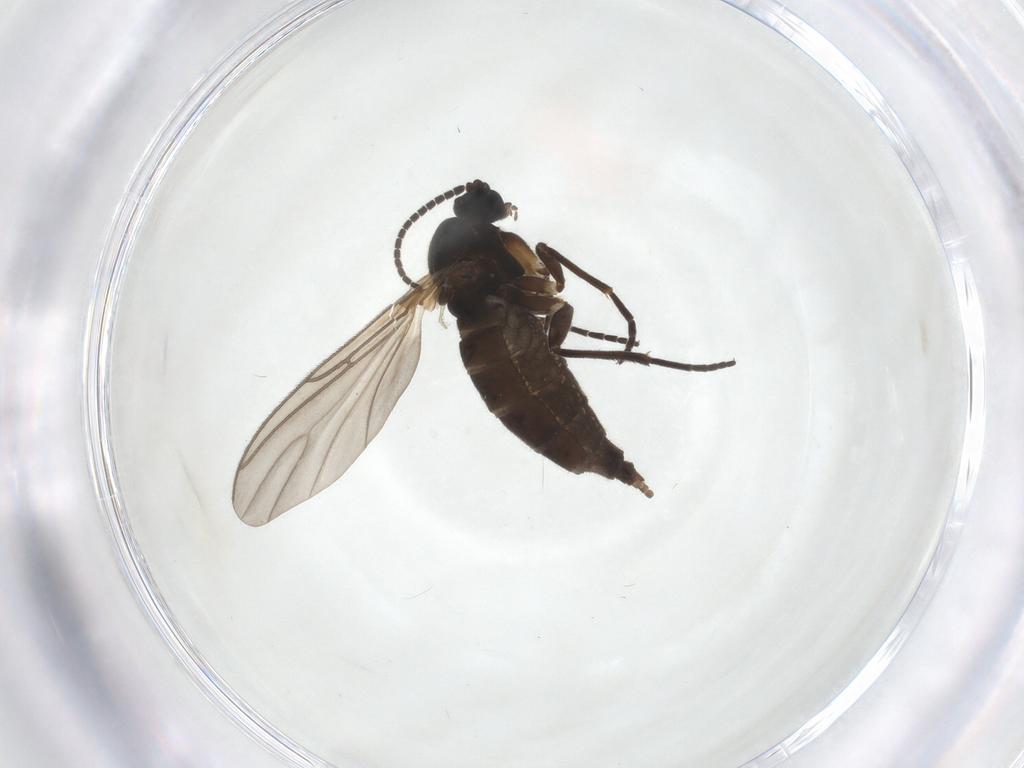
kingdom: Animalia
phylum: Arthropoda
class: Insecta
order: Diptera
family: Sciaridae
